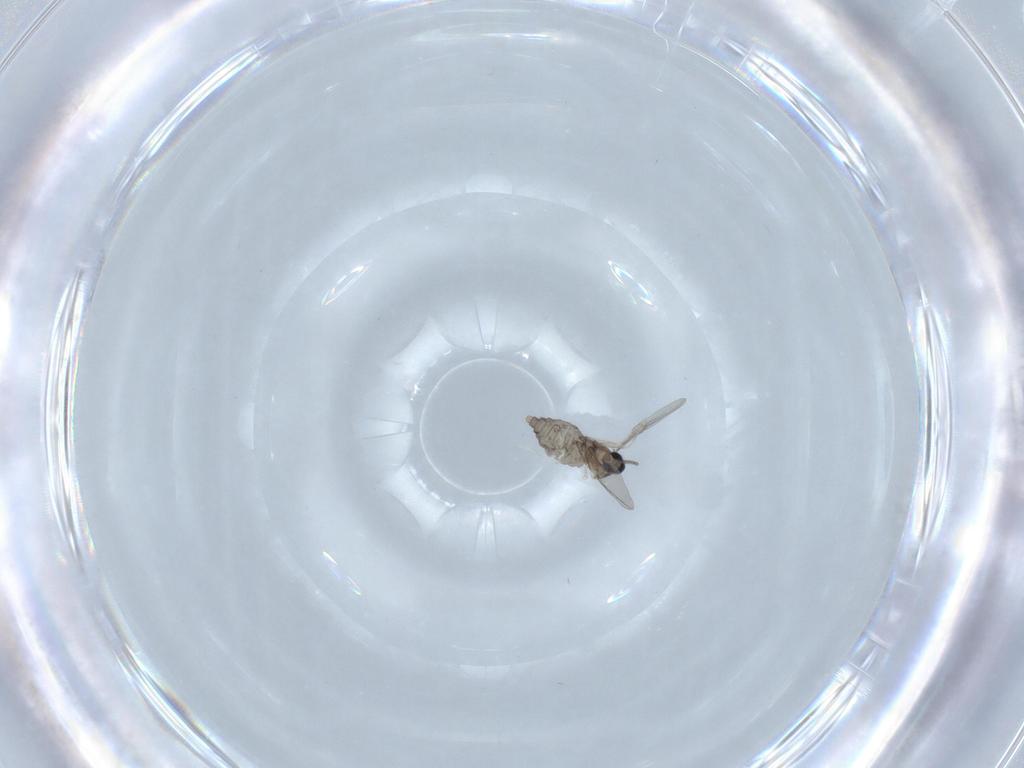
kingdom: Animalia
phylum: Arthropoda
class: Insecta
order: Diptera
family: Cecidomyiidae
